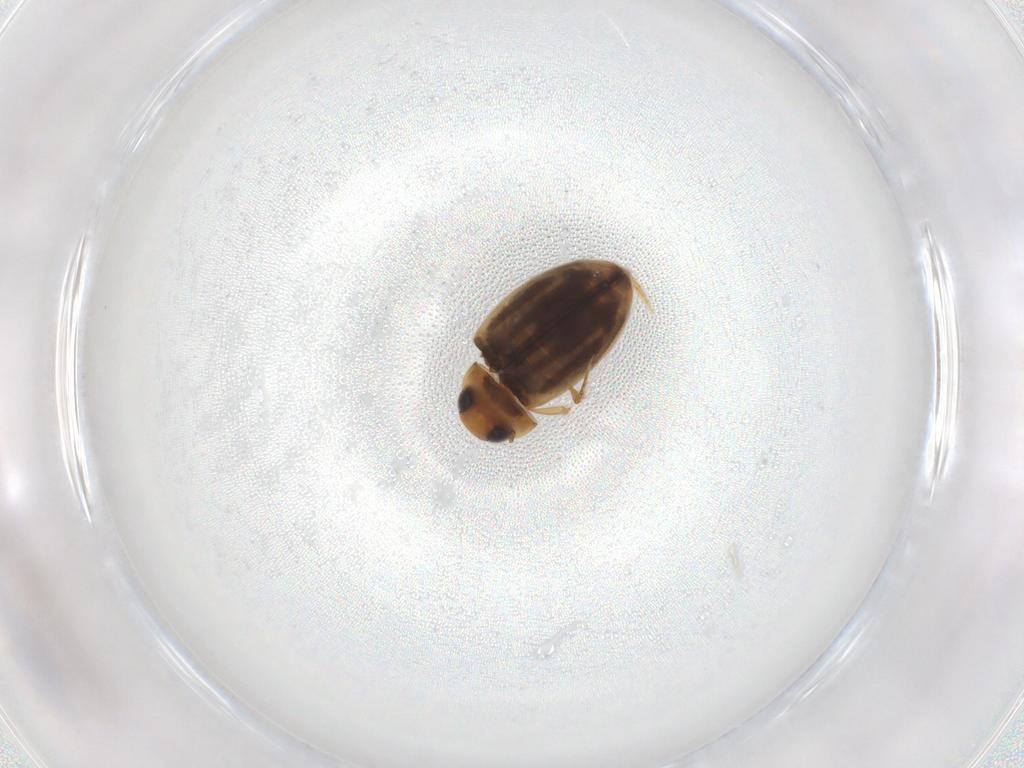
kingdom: Animalia
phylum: Arthropoda
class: Insecta
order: Coleoptera
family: Dytiscidae
